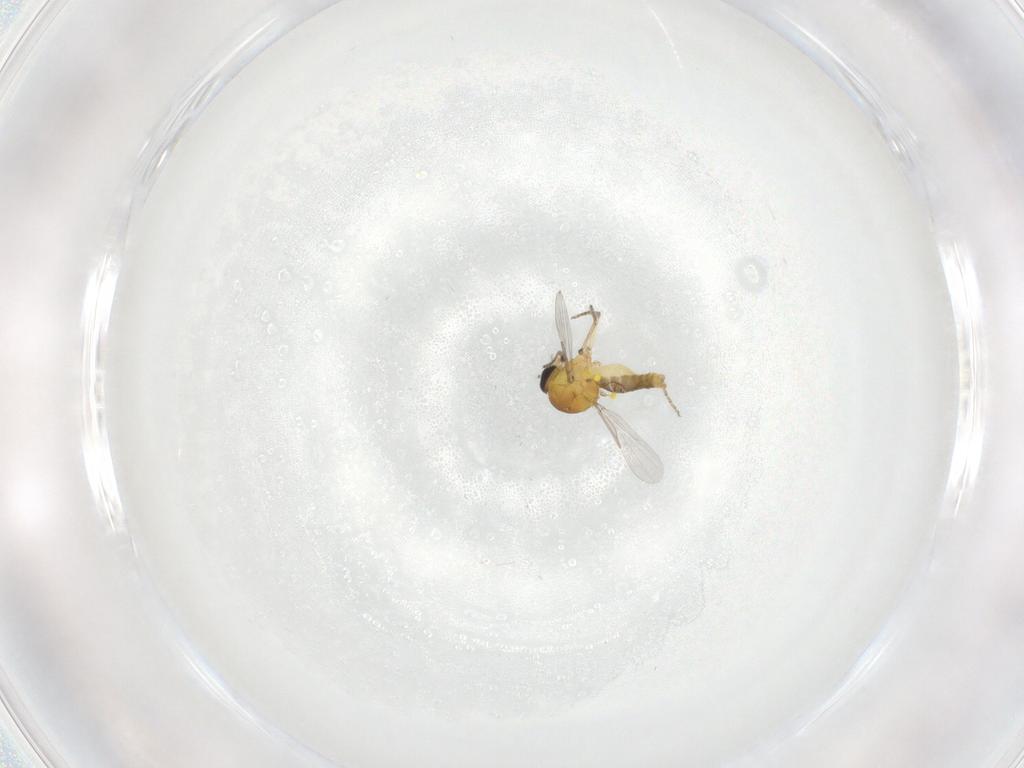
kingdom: Animalia
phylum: Arthropoda
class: Insecta
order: Diptera
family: Ceratopogonidae
